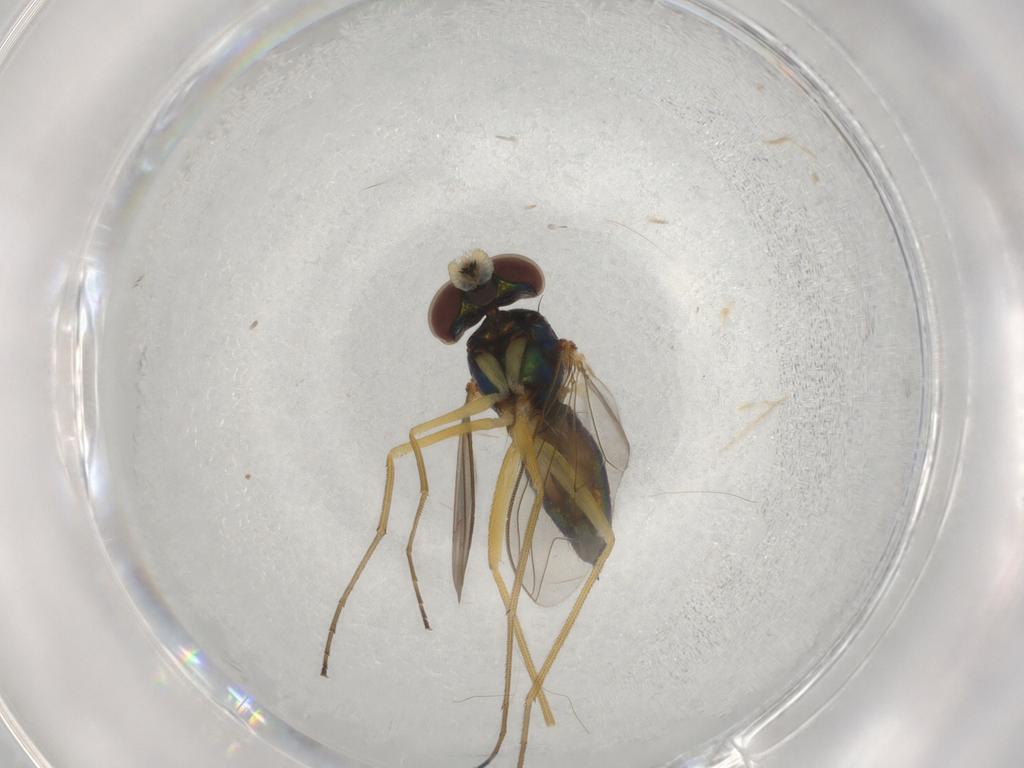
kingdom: Animalia
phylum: Arthropoda
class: Insecta
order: Diptera
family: Dolichopodidae
